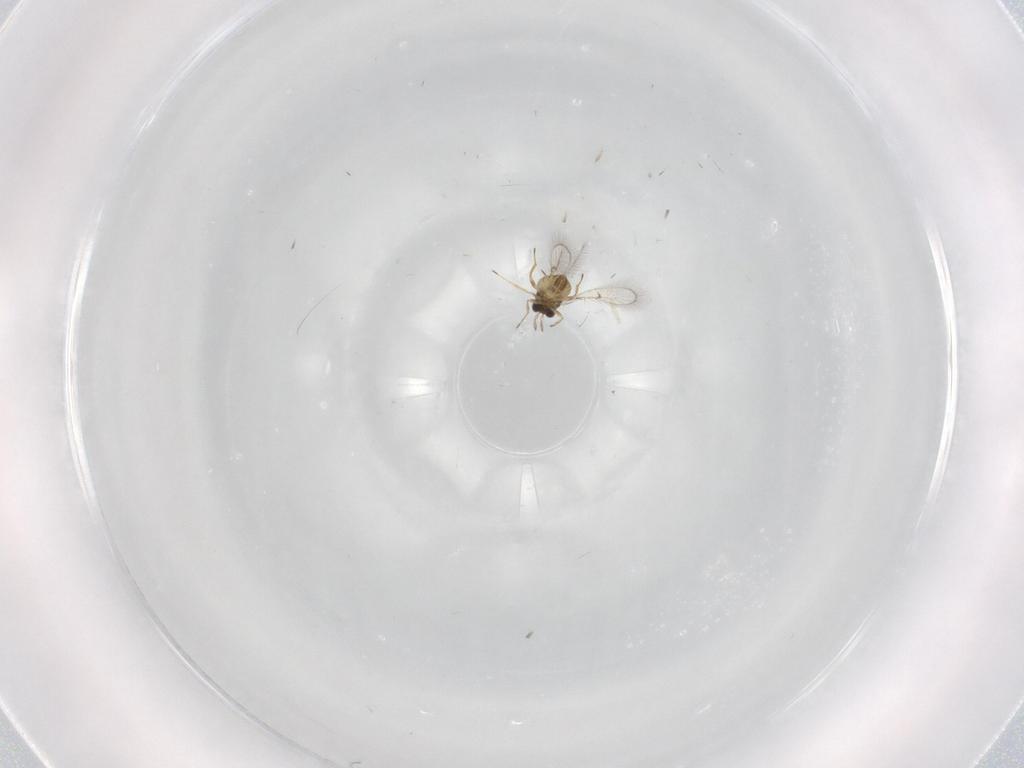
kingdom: Animalia
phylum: Arthropoda
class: Insecta
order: Hymenoptera
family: Trichogrammatidae
